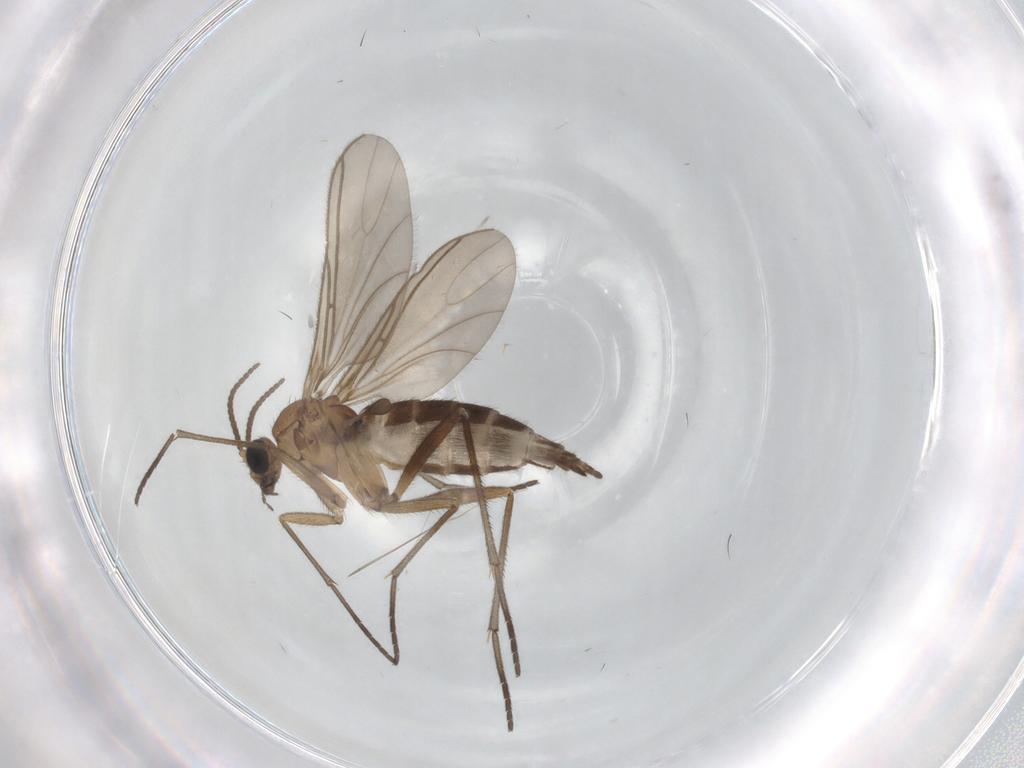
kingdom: Animalia
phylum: Arthropoda
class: Insecta
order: Diptera
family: Sciaridae
